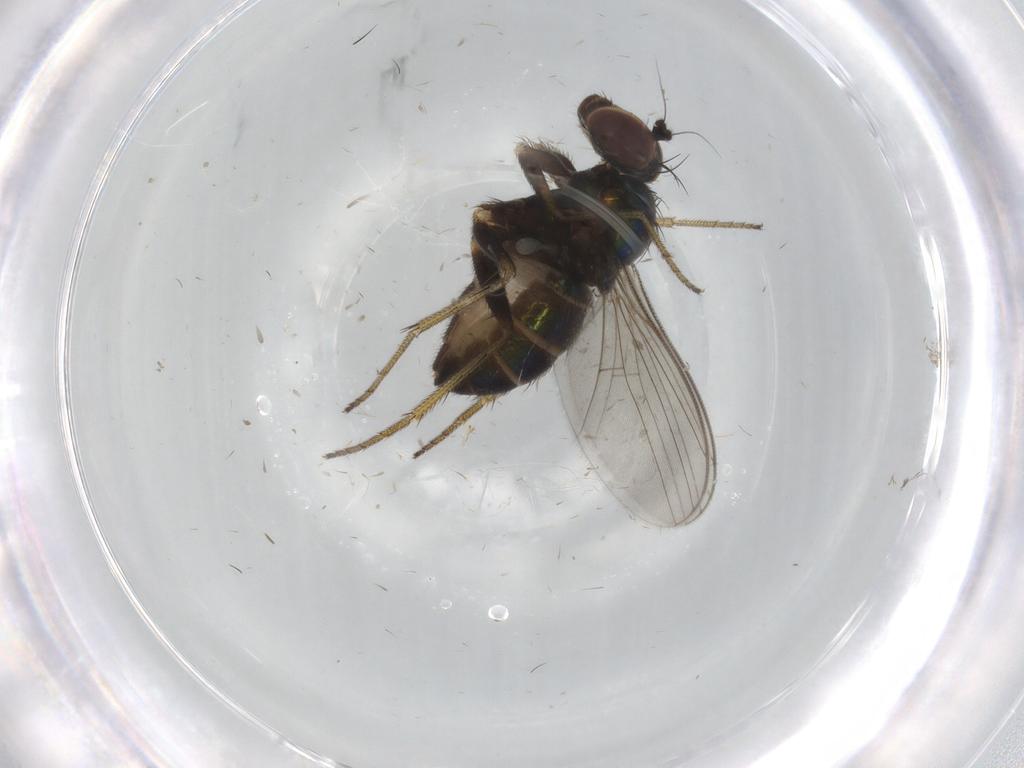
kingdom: Animalia
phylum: Arthropoda
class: Insecta
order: Diptera
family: Dolichopodidae
